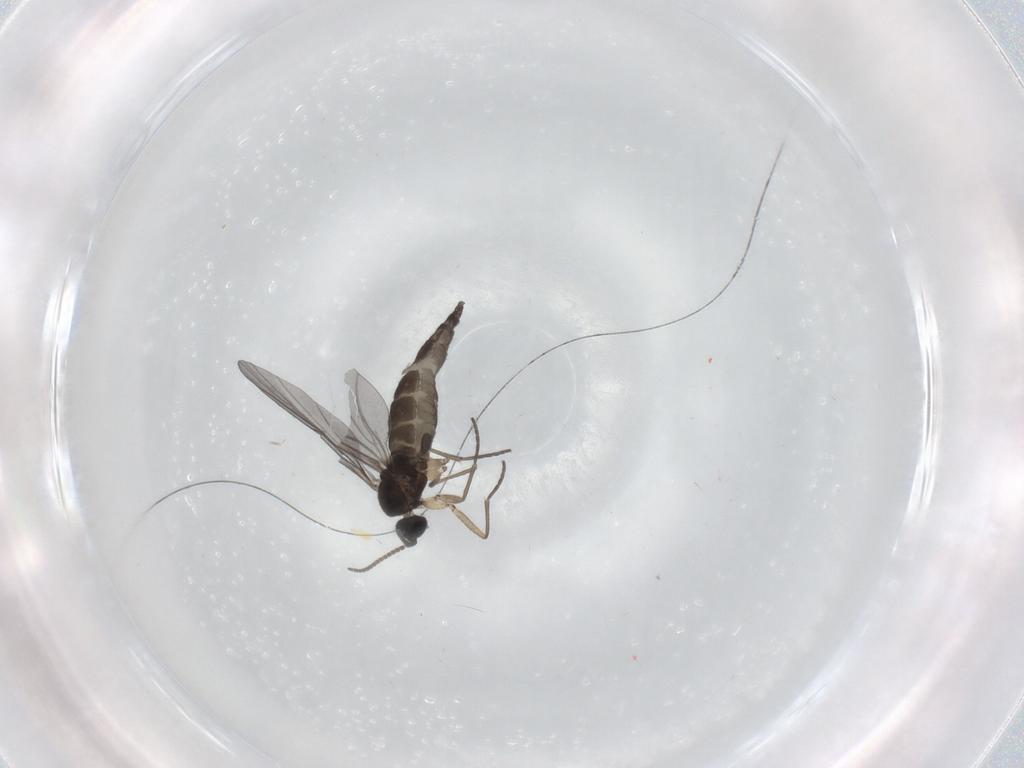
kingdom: Animalia
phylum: Arthropoda
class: Insecta
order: Diptera
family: Sciaridae
